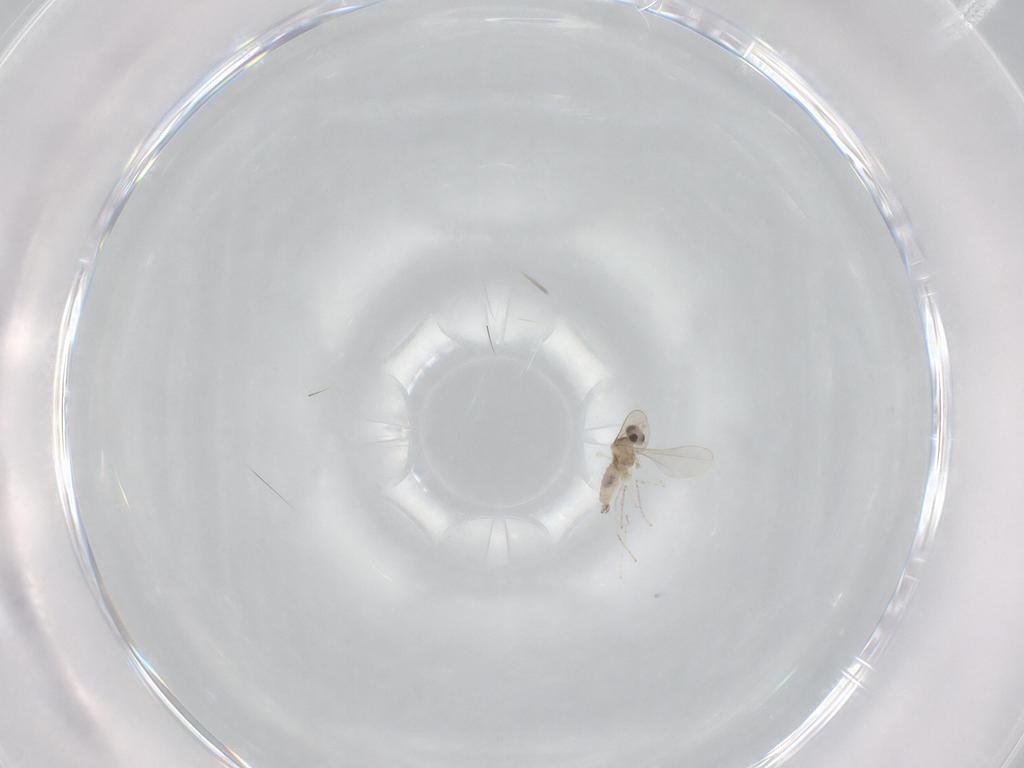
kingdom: Animalia
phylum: Arthropoda
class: Insecta
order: Diptera
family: Cecidomyiidae
